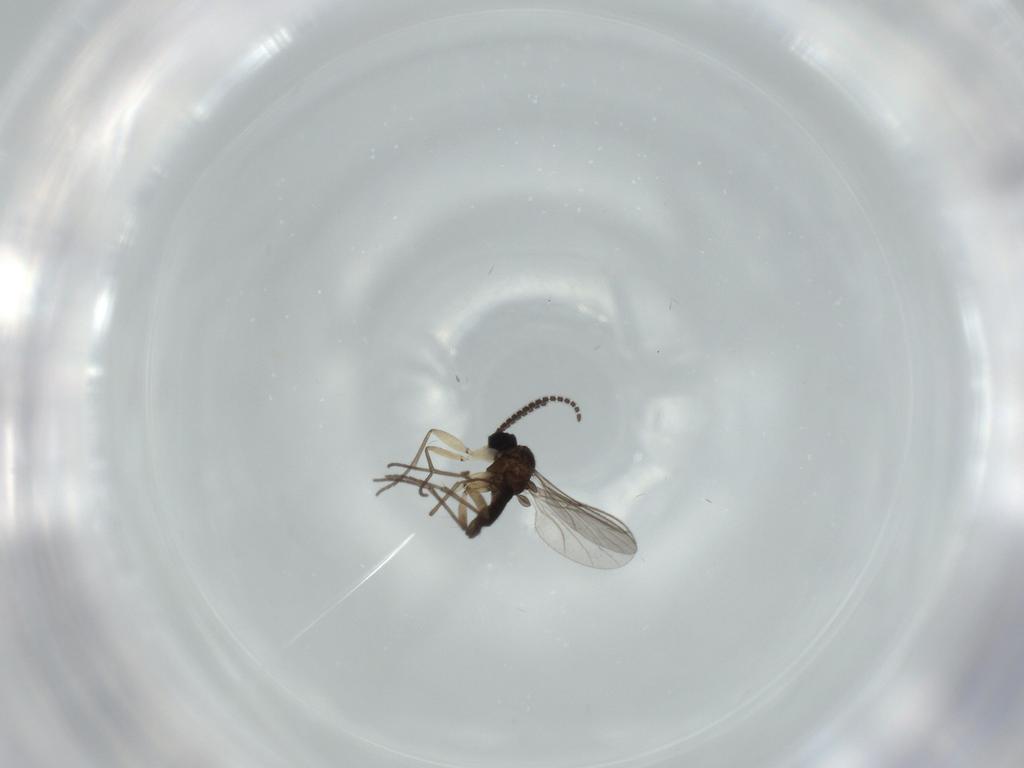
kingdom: Animalia
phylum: Arthropoda
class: Insecta
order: Diptera
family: Sciaridae
